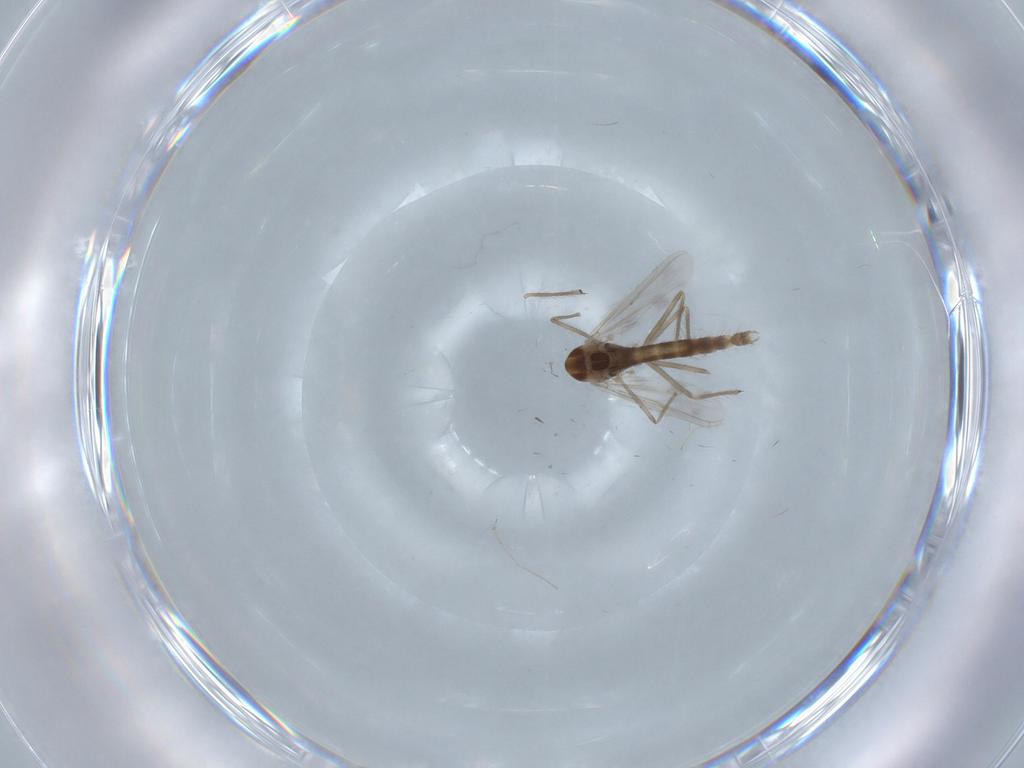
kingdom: Animalia
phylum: Arthropoda
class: Insecta
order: Diptera
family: Chironomidae
